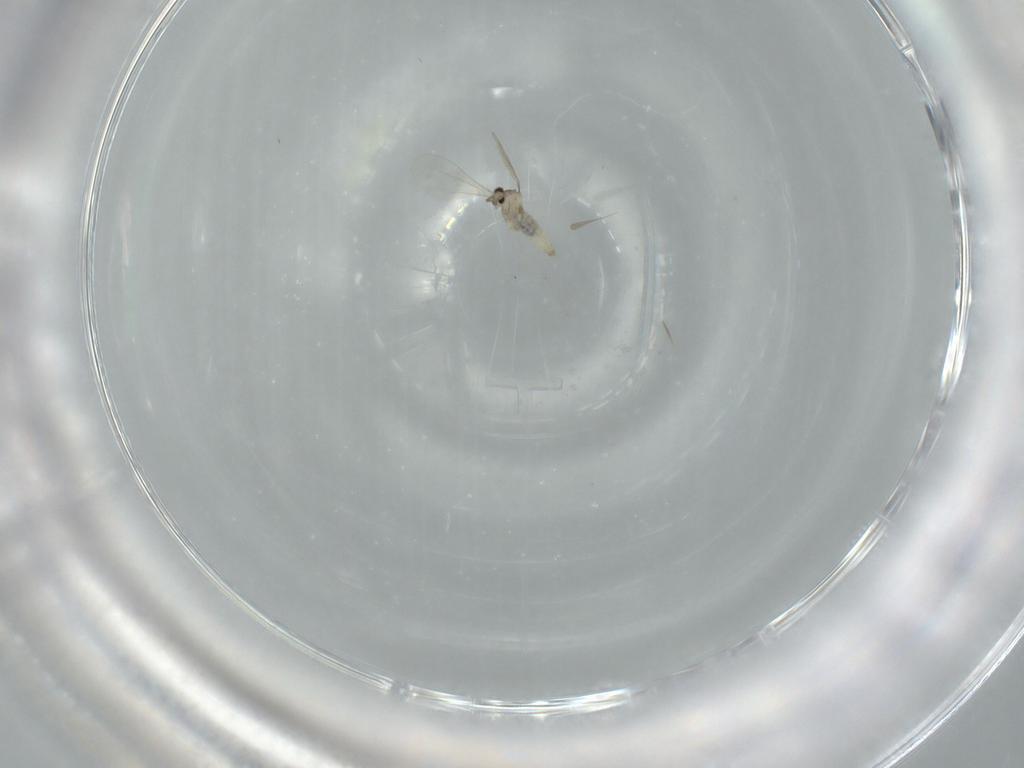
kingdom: Animalia
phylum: Arthropoda
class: Insecta
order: Diptera
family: Cecidomyiidae
